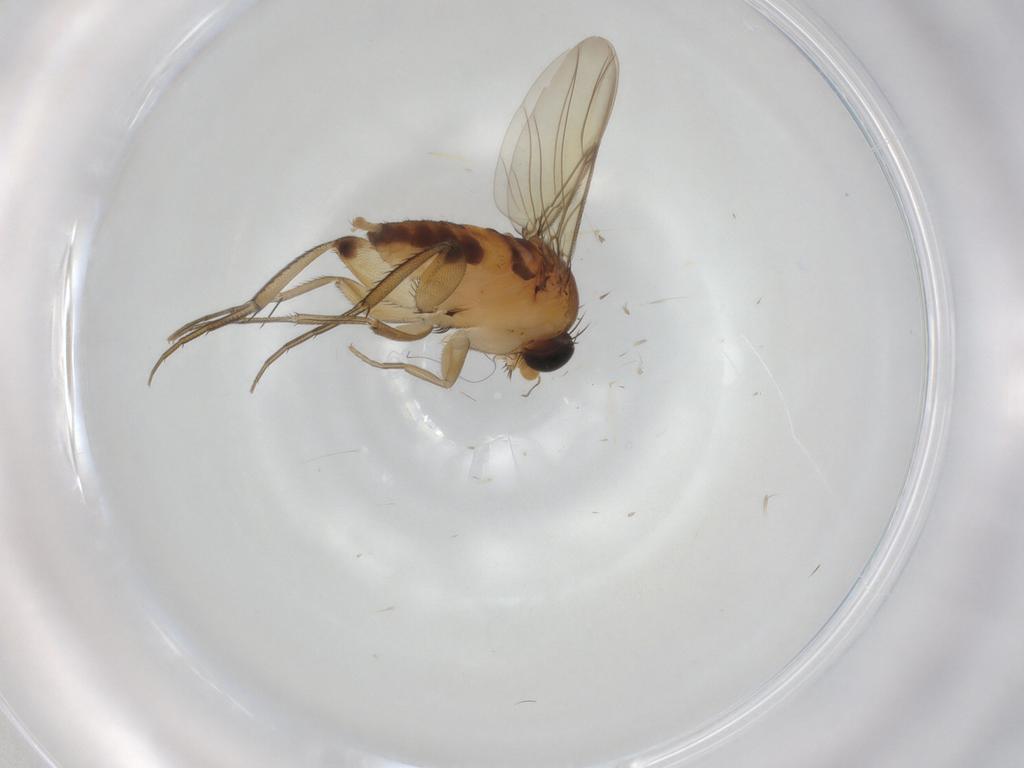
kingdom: Animalia
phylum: Arthropoda
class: Insecta
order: Diptera
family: Phoridae
